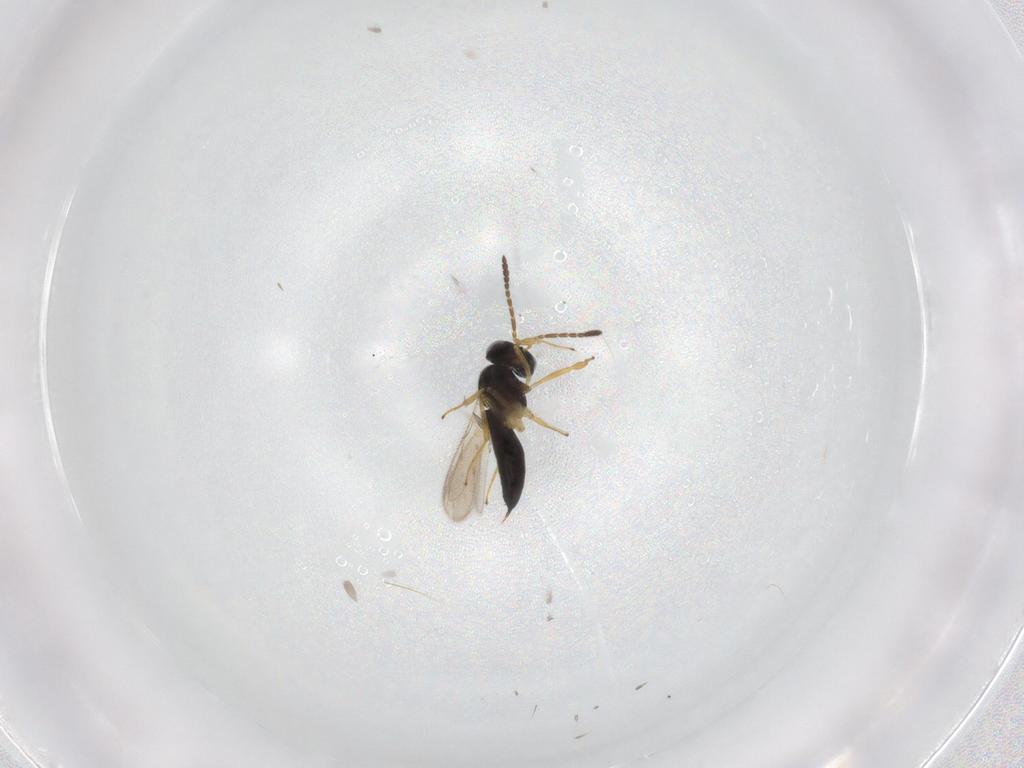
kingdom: Animalia
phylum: Arthropoda
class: Insecta
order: Hymenoptera
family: Scelionidae
